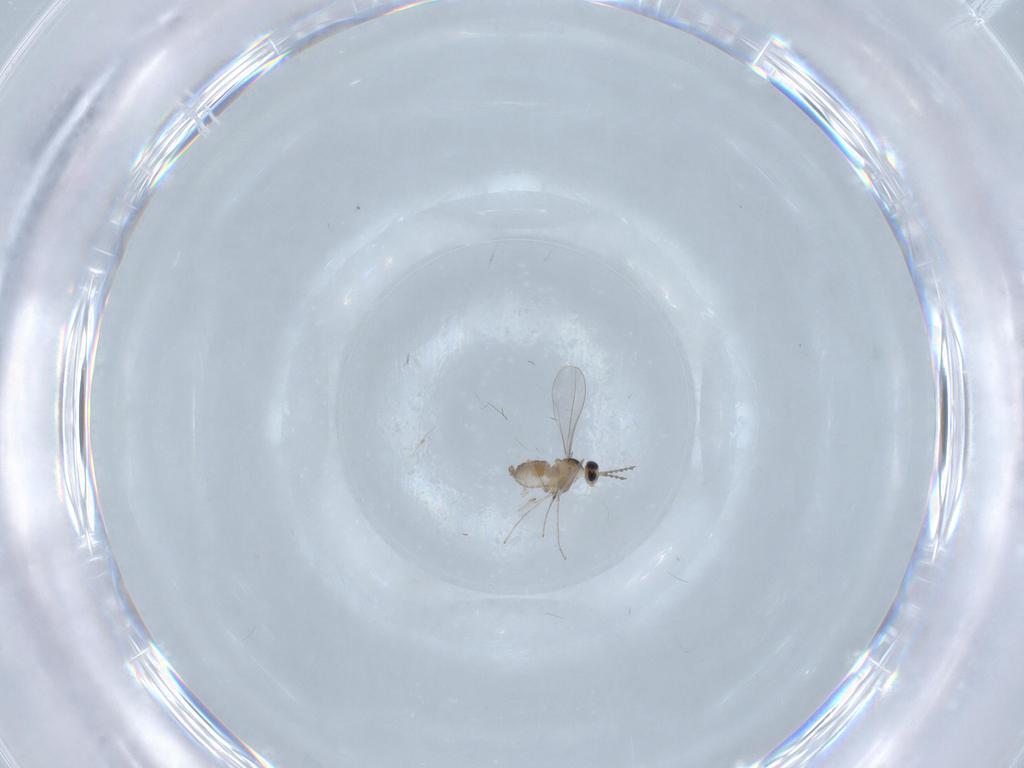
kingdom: Animalia
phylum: Arthropoda
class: Insecta
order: Diptera
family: Cecidomyiidae
